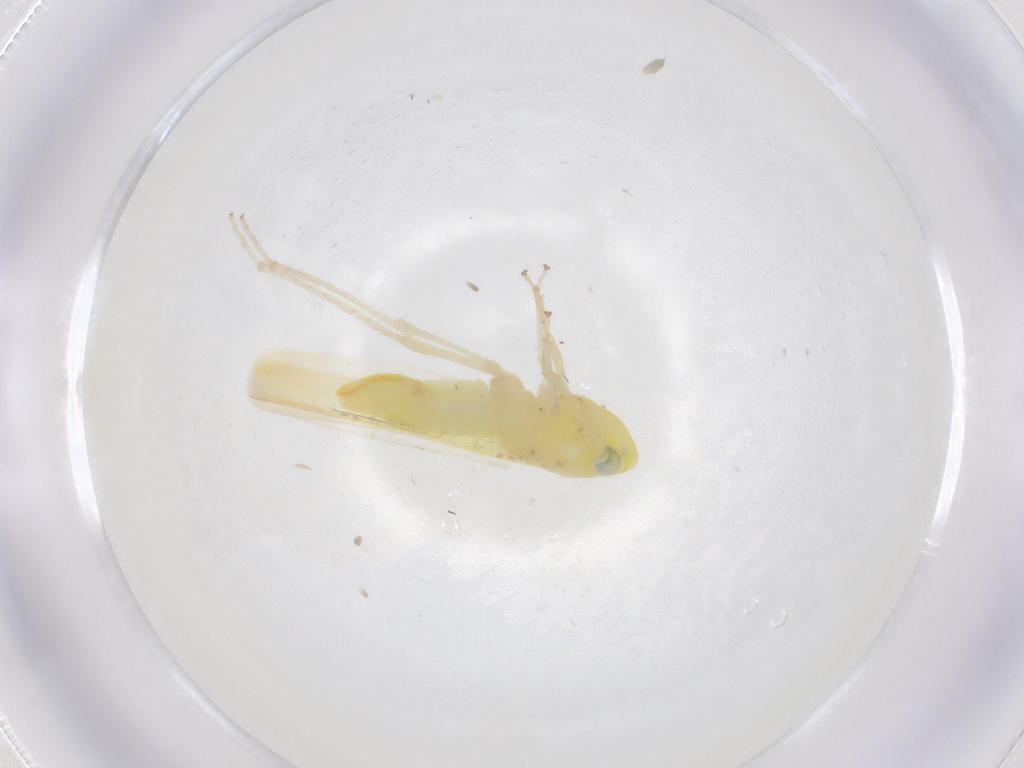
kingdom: Animalia
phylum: Arthropoda
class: Insecta
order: Hemiptera
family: Cicadellidae
